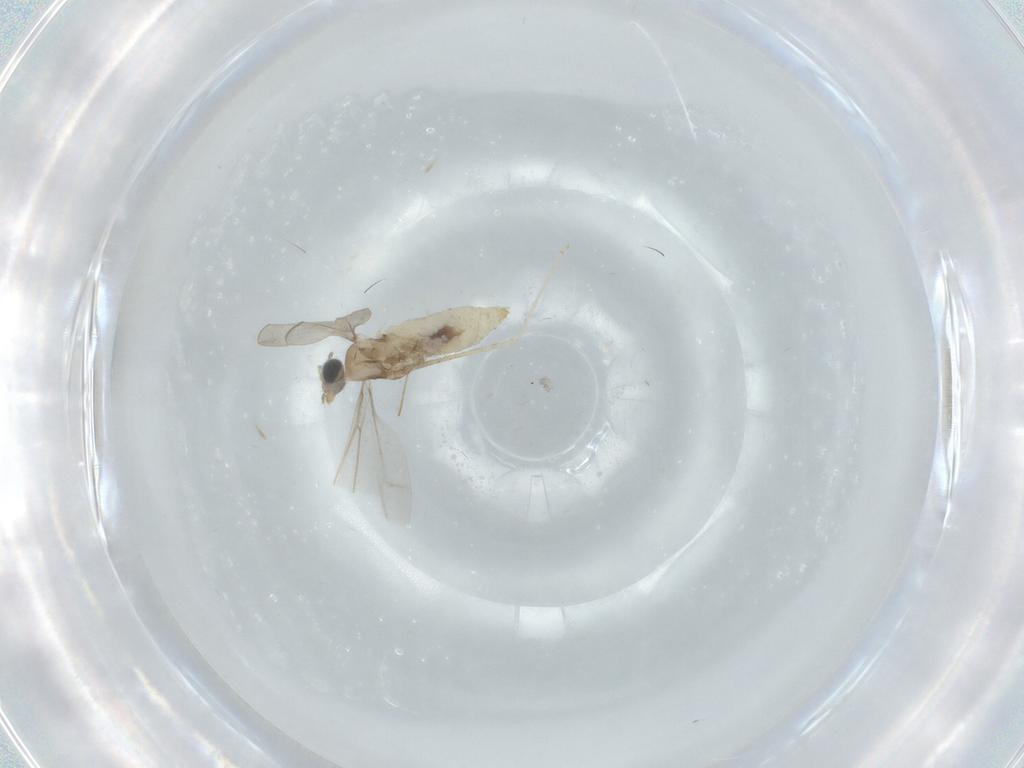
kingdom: Animalia
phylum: Arthropoda
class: Insecta
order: Diptera
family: Cecidomyiidae
